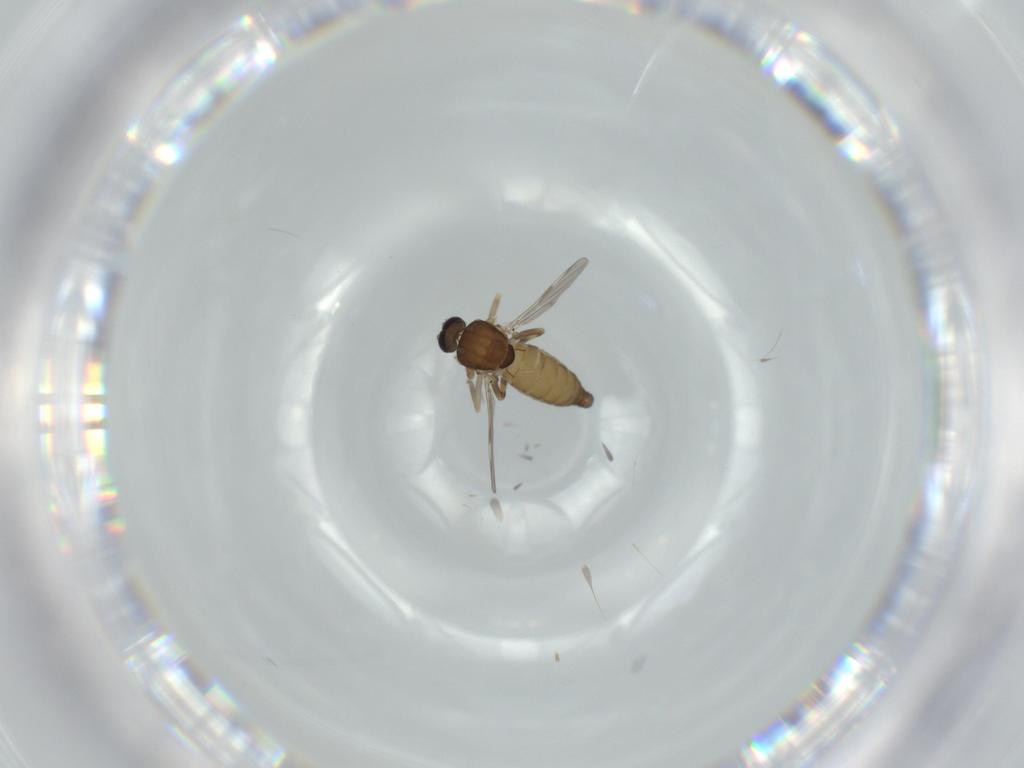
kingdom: Animalia
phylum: Arthropoda
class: Insecta
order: Diptera
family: Ceratopogonidae
